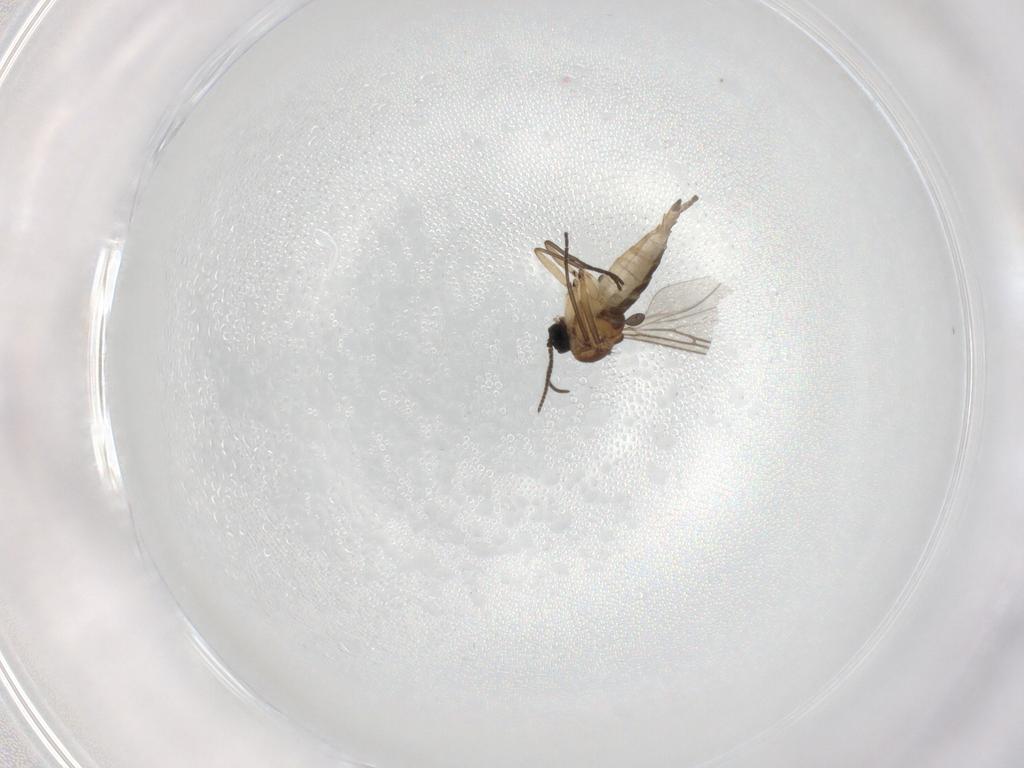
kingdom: Animalia
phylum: Arthropoda
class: Insecta
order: Diptera
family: Sciaridae
